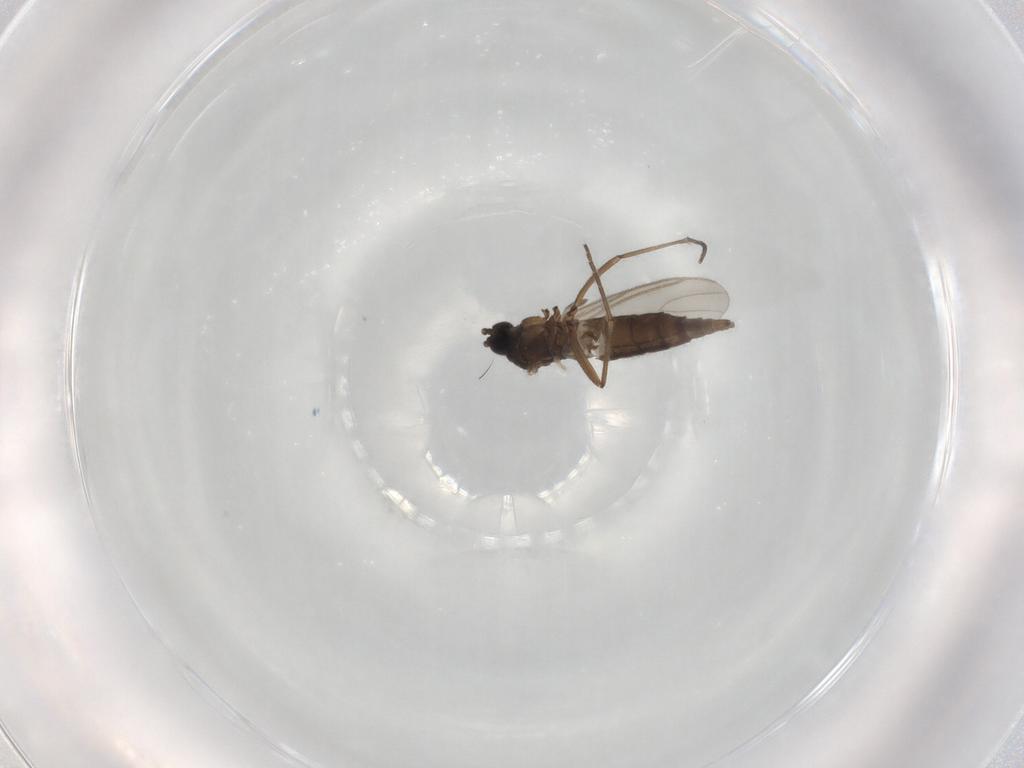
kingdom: Animalia
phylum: Arthropoda
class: Insecta
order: Diptera
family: Sciaridae
